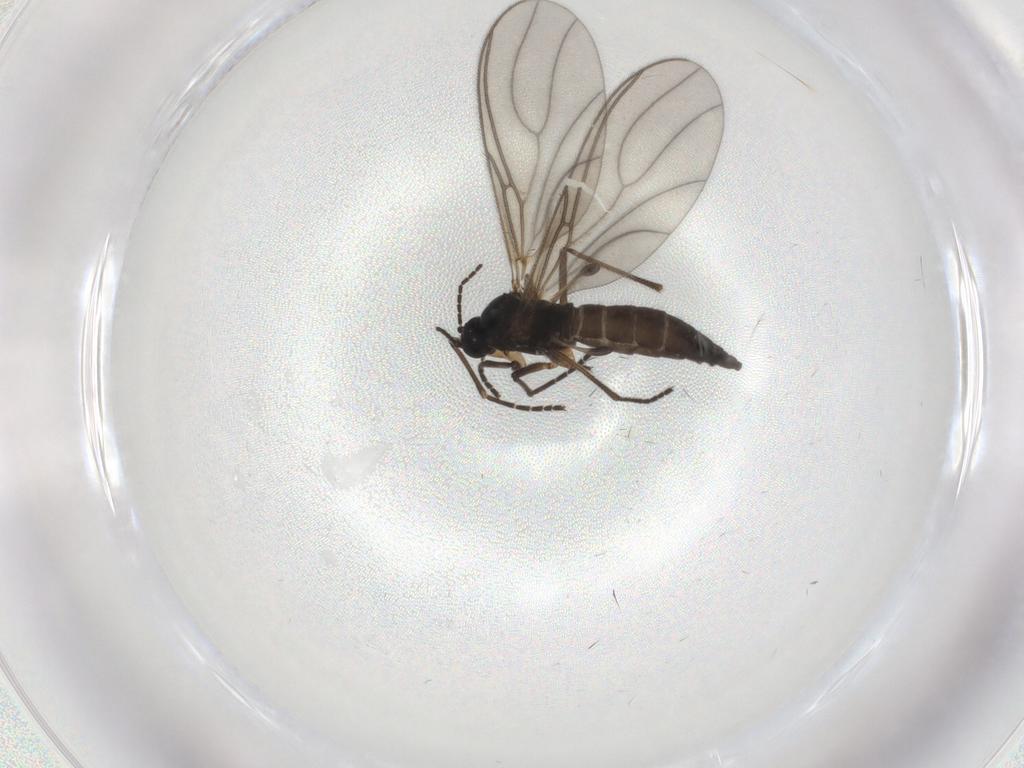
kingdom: Animalia
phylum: Arthropoda
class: Insecta
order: Diptera
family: Sciaridae
